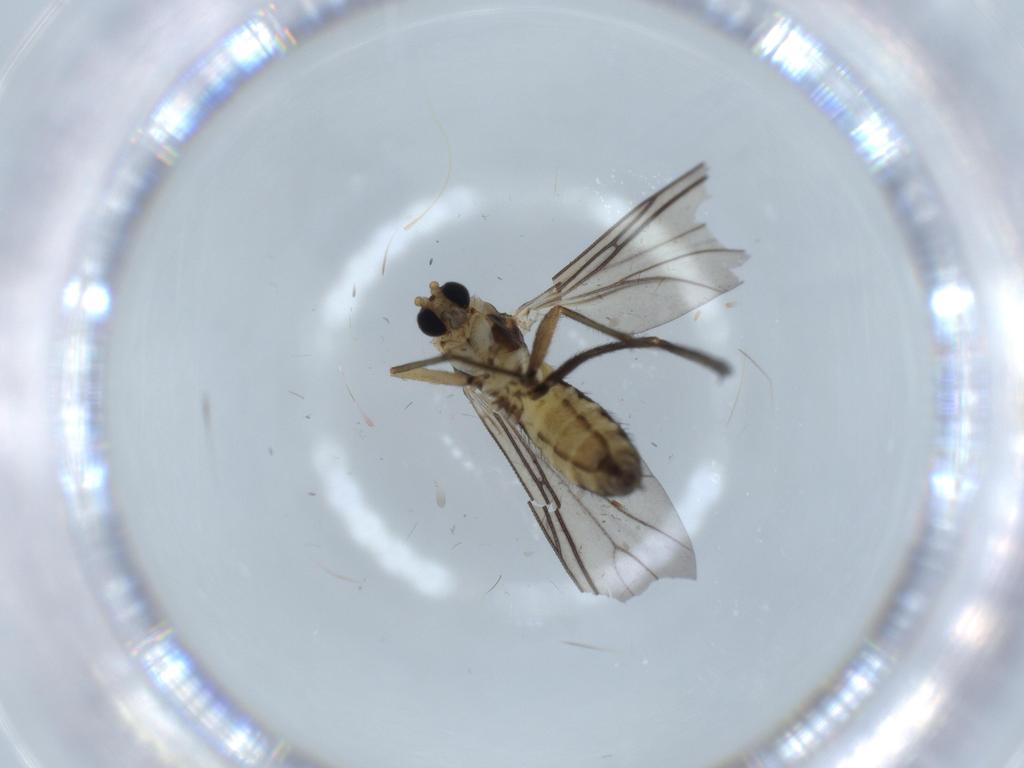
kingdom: Animalia
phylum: Arthropoda
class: Insecta
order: Diptera
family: Sciaridae
